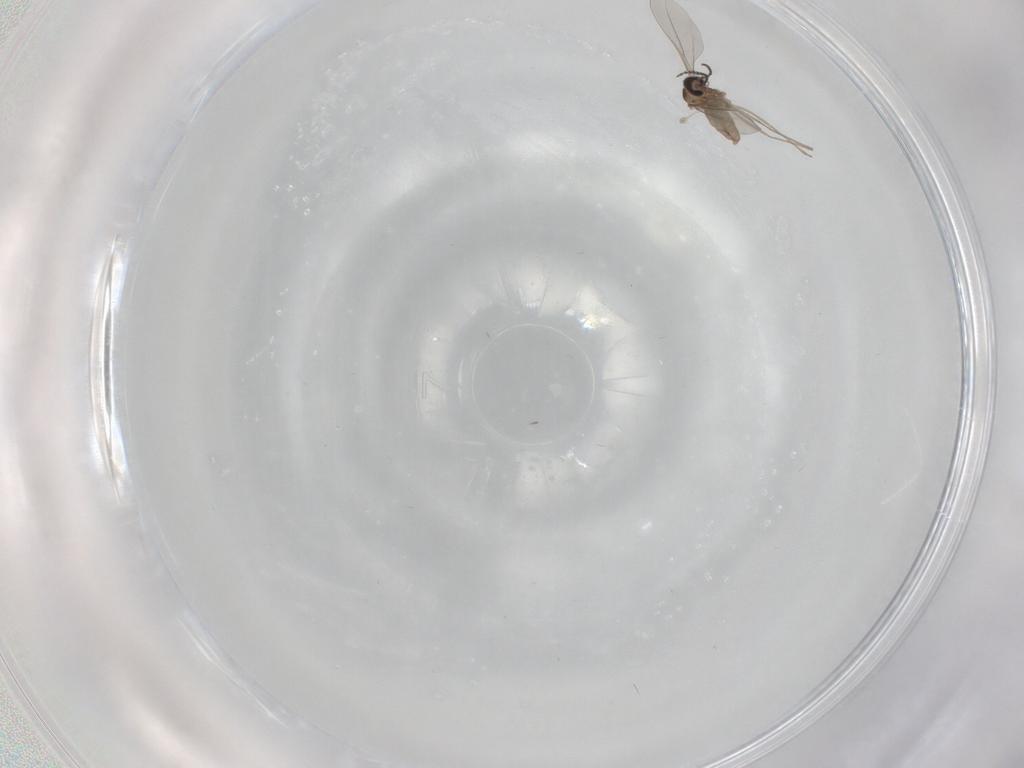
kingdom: Animalia
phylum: Arthropoda
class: Insecta
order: Diptera
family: Cecidomyiidae
